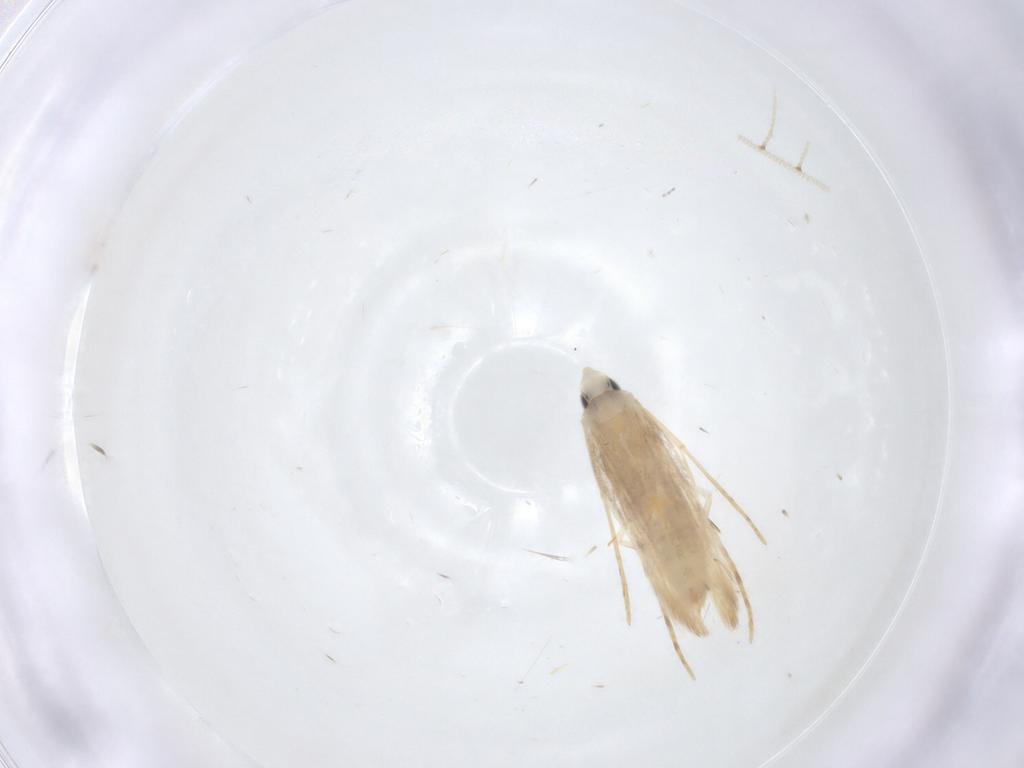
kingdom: Animalia
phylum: Arthropoda
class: Insecta
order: Lepidoptera
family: Tineidae
